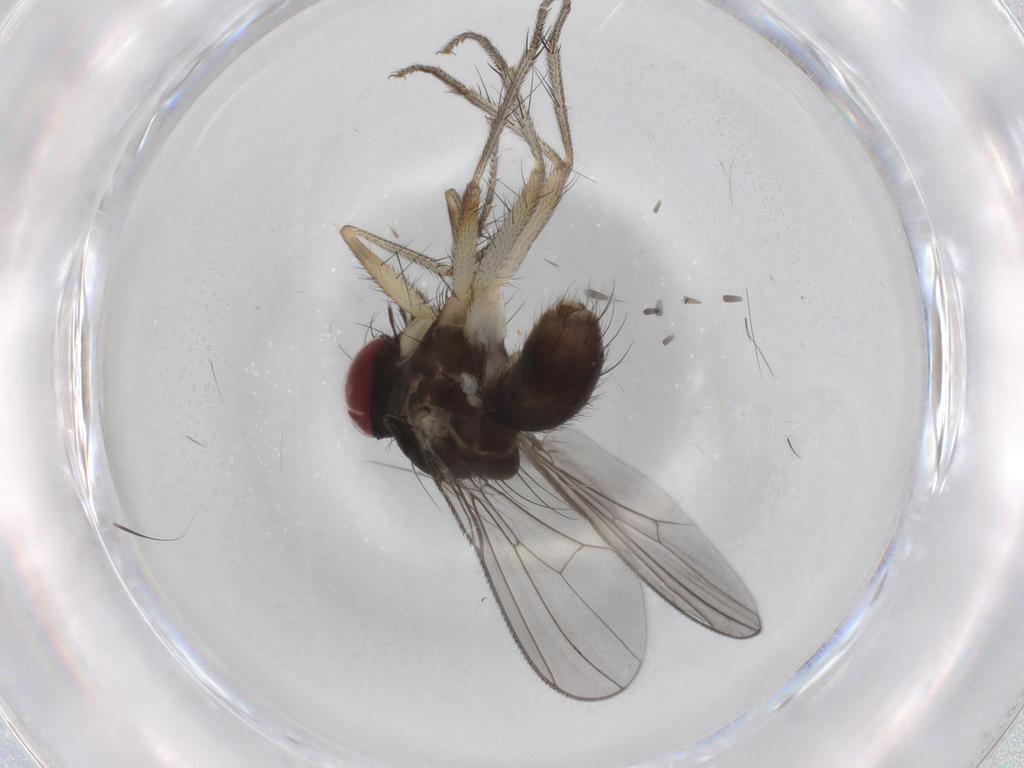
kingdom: Animalia
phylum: Arthropoda
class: Insecta
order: Diptera
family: Anthomyiidae
